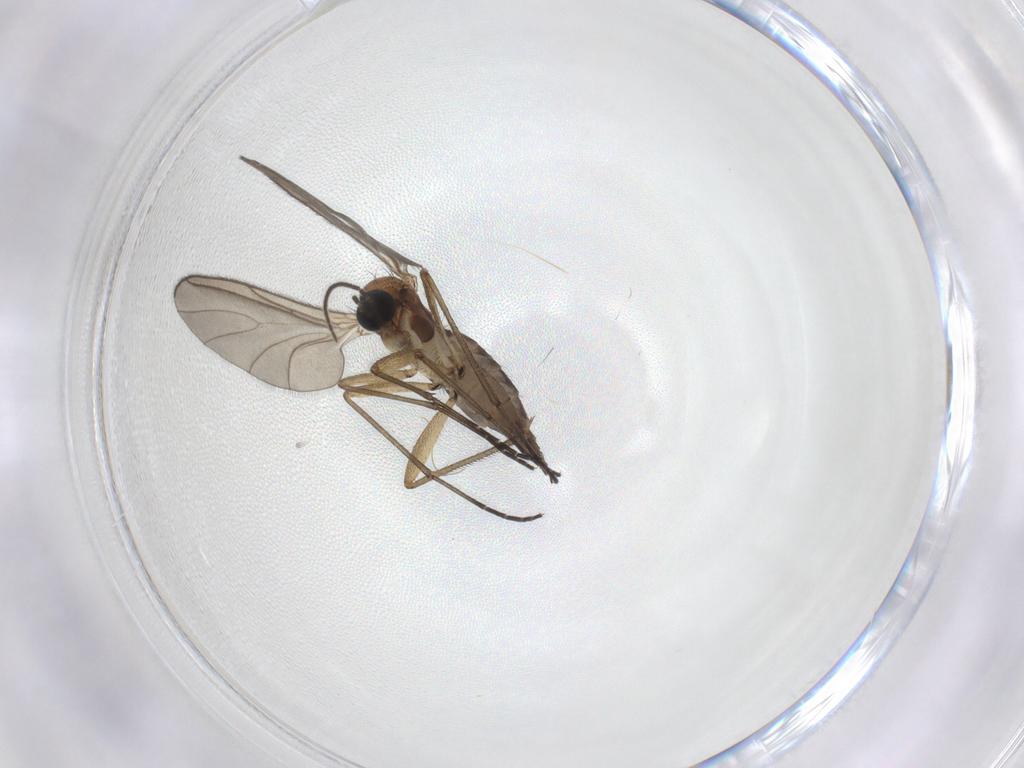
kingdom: Animalia
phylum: Arthropoda
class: Insecta
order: Diptera
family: Sciaridae
